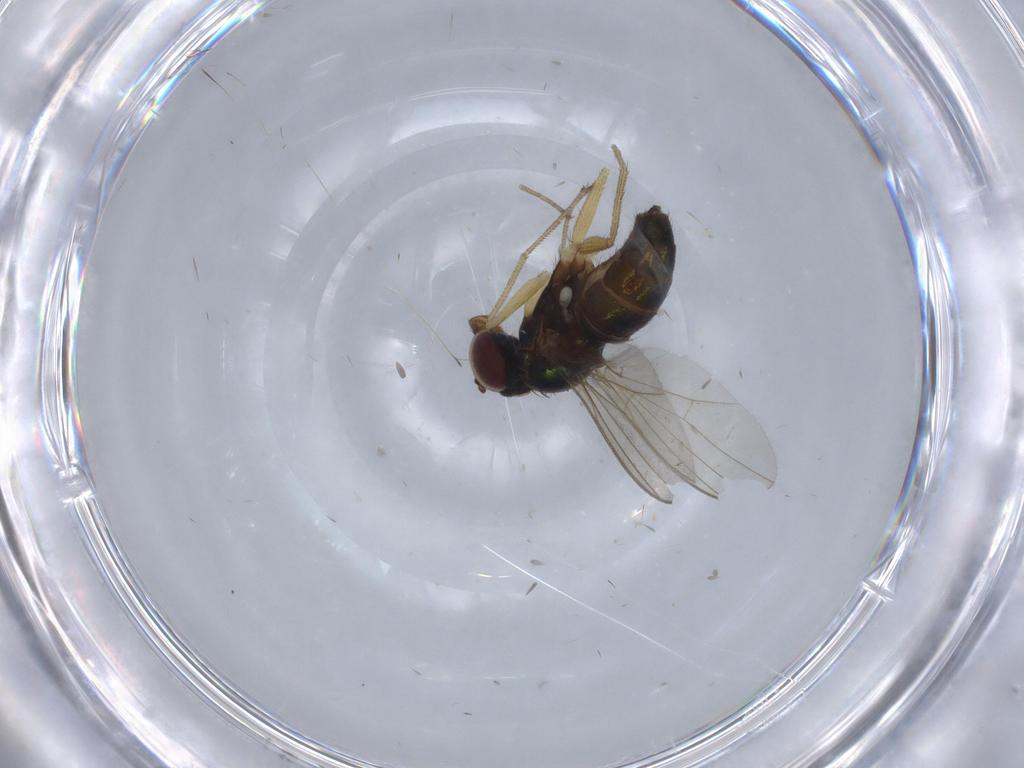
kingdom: Animalia
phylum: Arthropoda
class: Insecta
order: Diptera
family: Dolichopodidae
